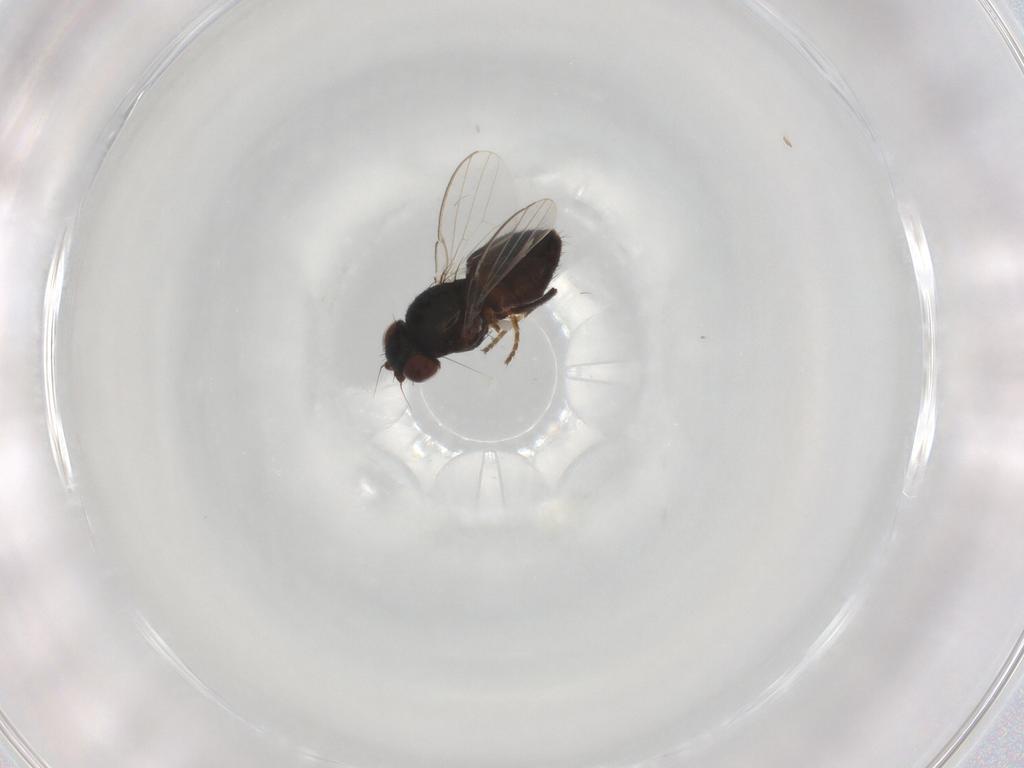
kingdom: Animalia
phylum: Arthropoda
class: Insecta
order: Diptera
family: Milichiidae
